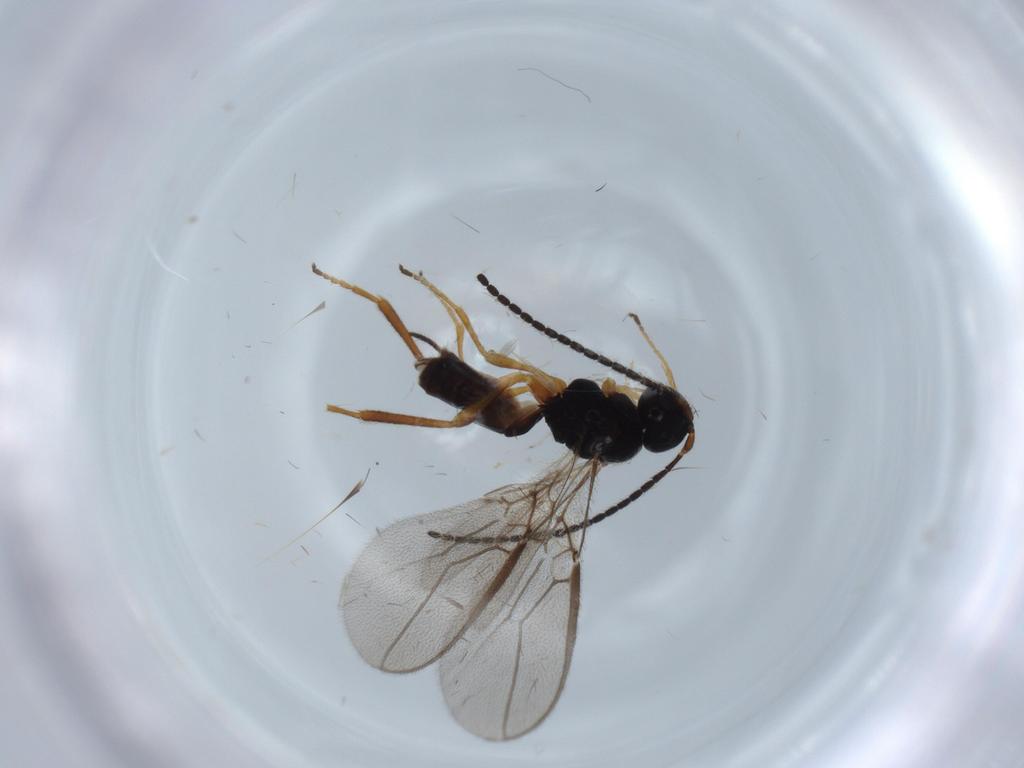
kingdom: Animalia
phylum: Arthropoda
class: Insecta
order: Hymenoptera
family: Braconidae
